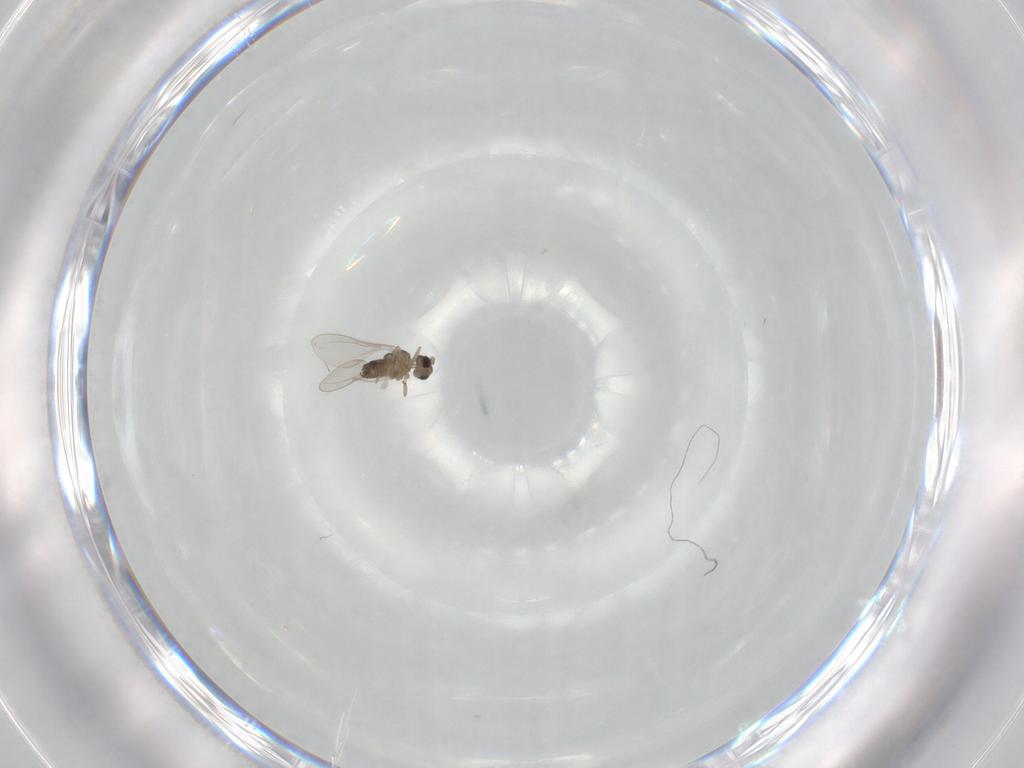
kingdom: Animalia
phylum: Arthropoda
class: Insecta
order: Diptera
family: Cecidomyiidae
